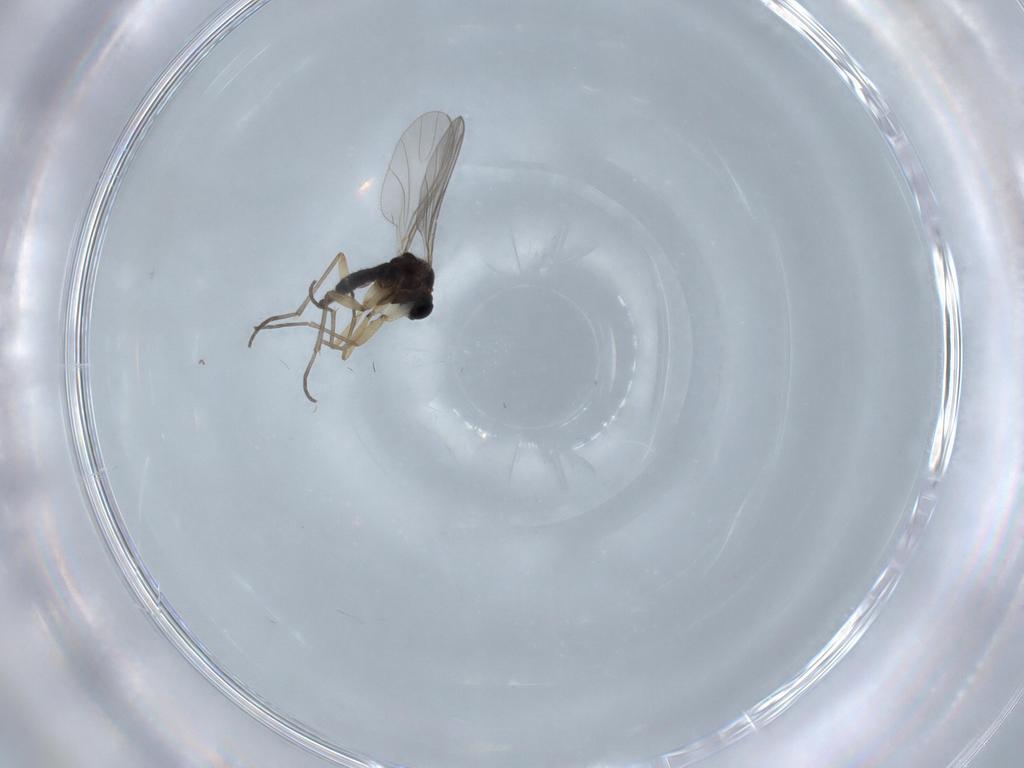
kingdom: Animalia
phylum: Arthropoda
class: Insecta
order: Diptera
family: Sciaridae
